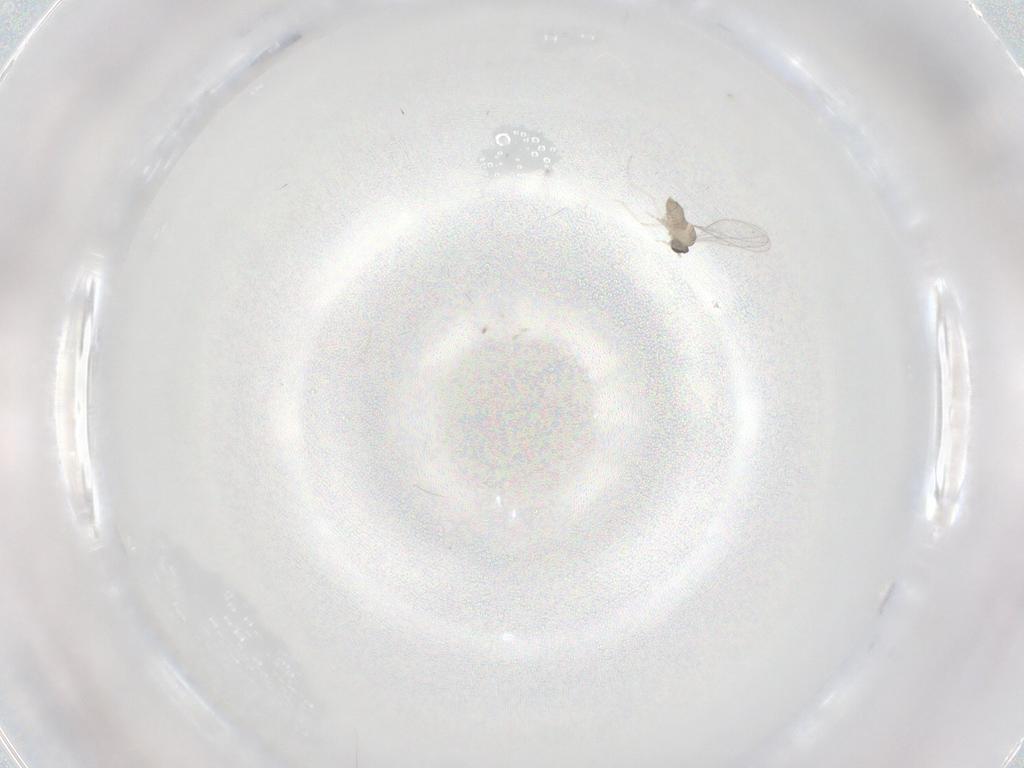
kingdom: Animalia
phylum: Arthropoda
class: Insecta
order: Diptera
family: Cecidomyiidae
